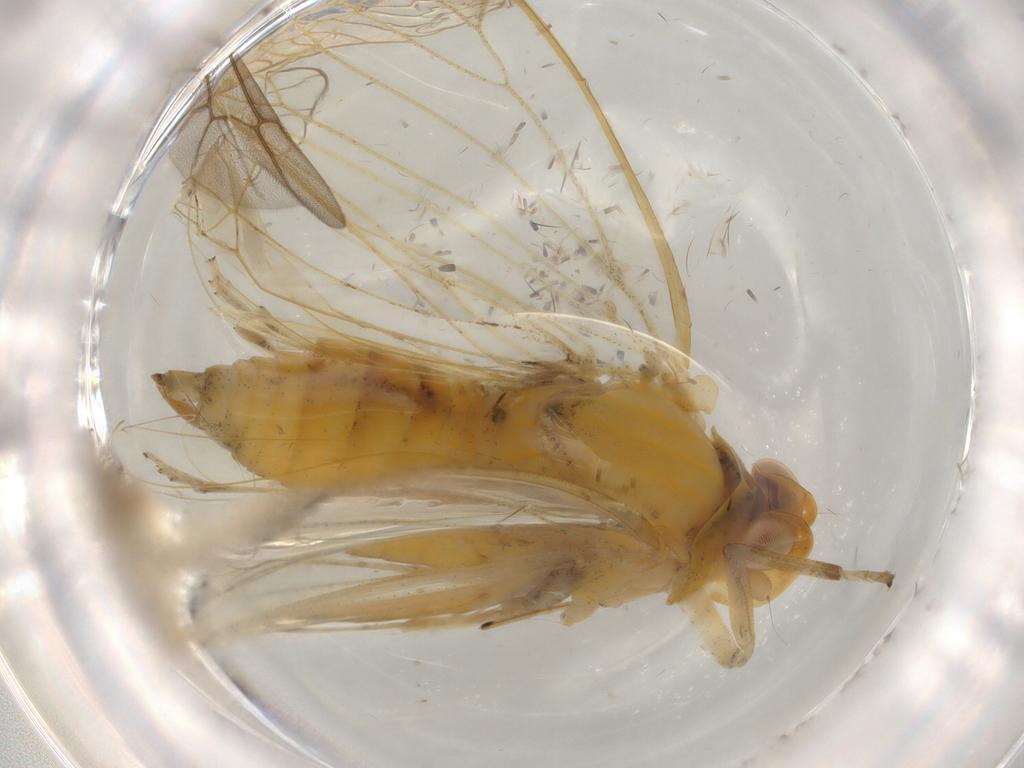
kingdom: Animalia
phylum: Arthropoda
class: Insecta
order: Hemiptera
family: Cicadellidae
